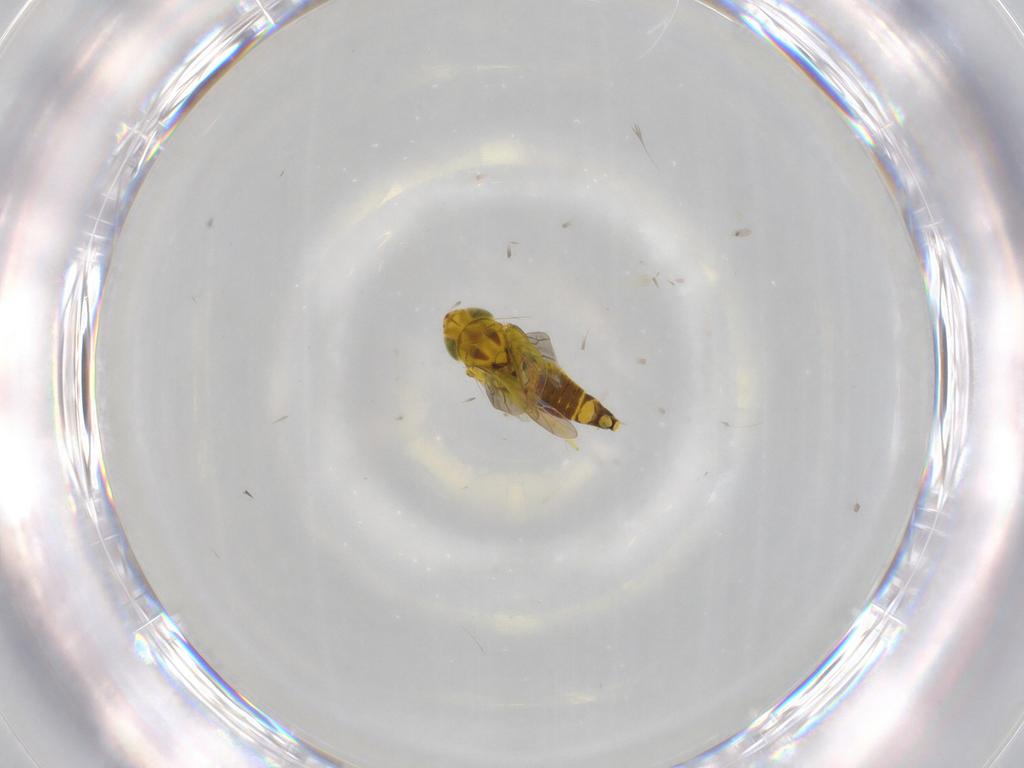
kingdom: Animalia
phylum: Arthropoda
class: Insecta
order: Hemiptera
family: Cicadellidae
